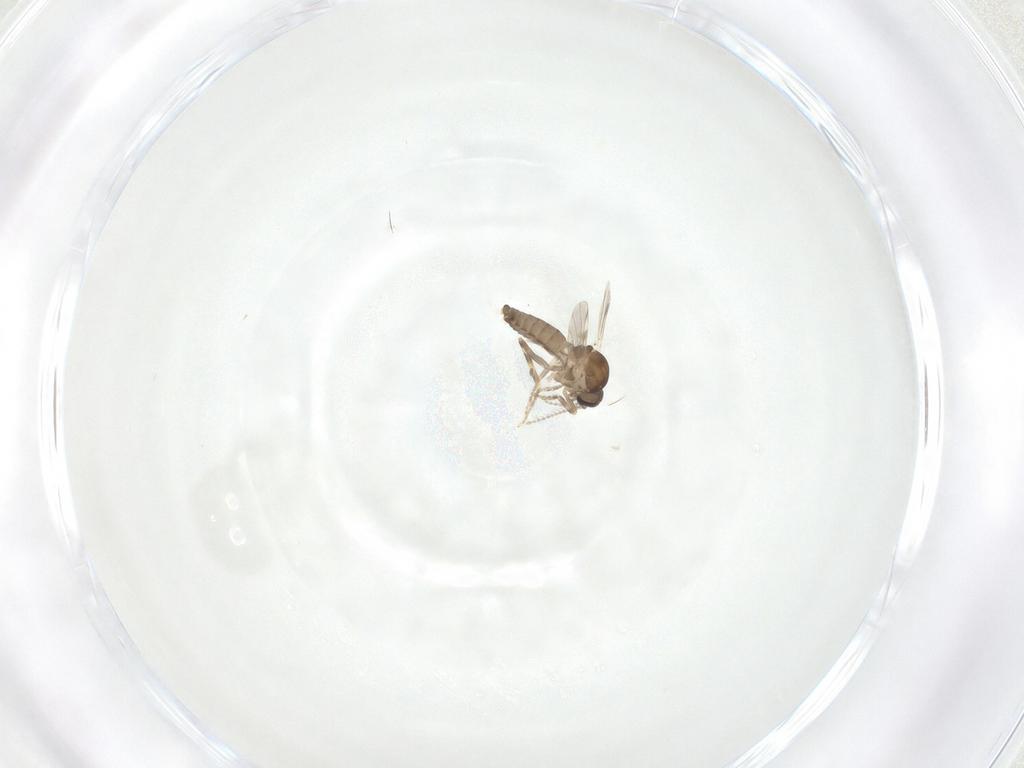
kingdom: Animalia
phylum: Arthropoda
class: Insecta
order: Diptera
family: Ceratopogonidae
